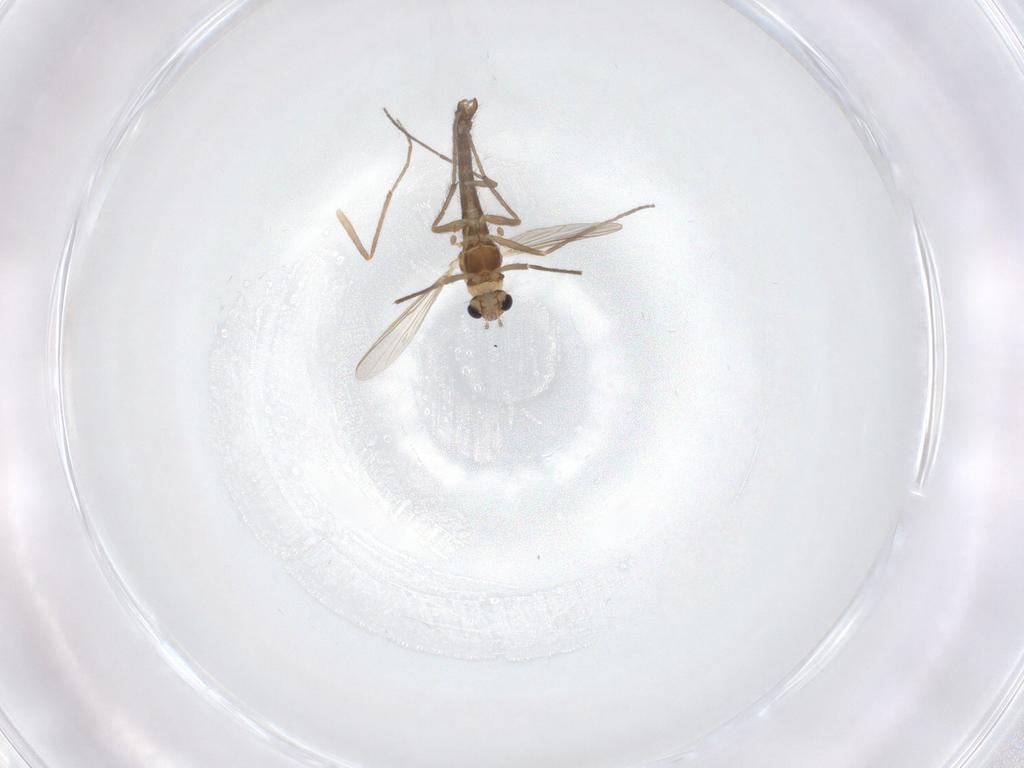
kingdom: Animalia
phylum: Arthropoda
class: Insecta
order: Diptera
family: Chironomidae
